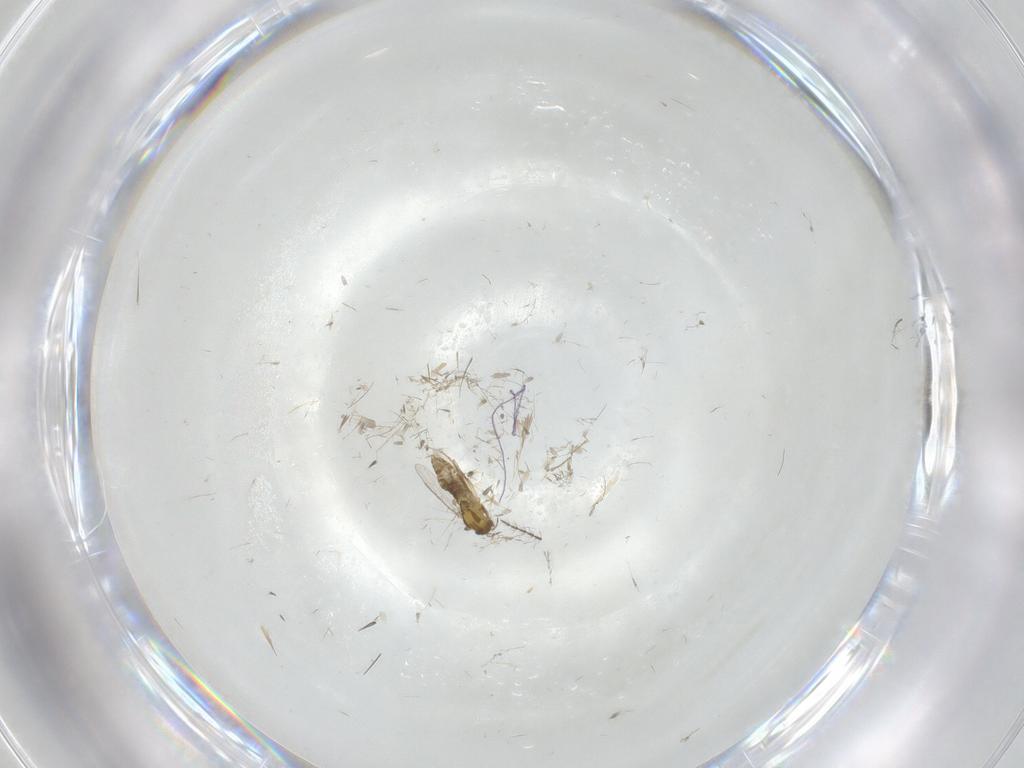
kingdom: Animalia
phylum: Arthropoda
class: Insecta
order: Diptera
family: Ceratopogonidae
